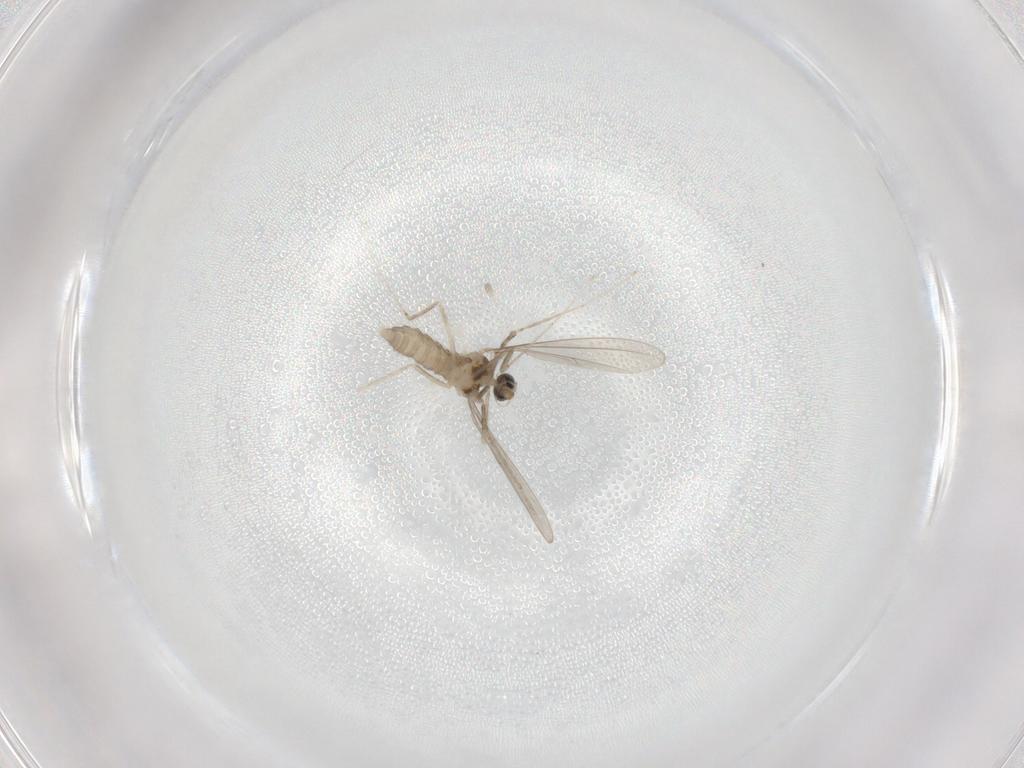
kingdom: Animalia
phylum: Arthropoda
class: Insecta
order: Diptera
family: Cecidomyiidae
